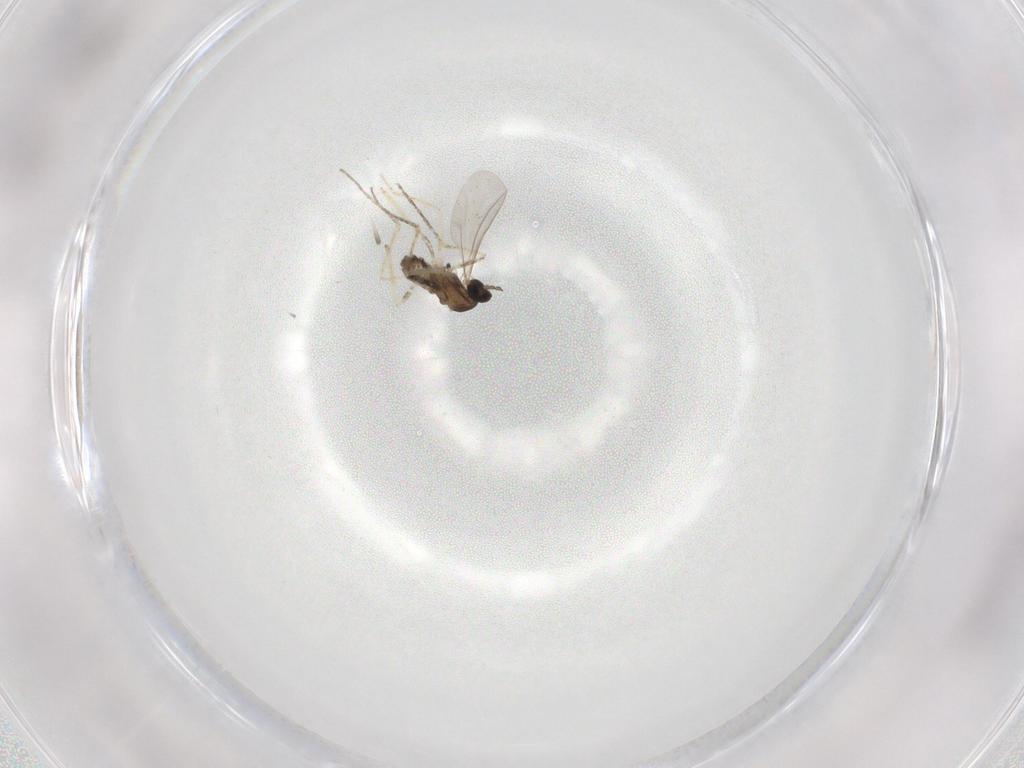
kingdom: Animalia
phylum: Arthropoda
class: Insecta
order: Diptera
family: Cecidomyiidae
